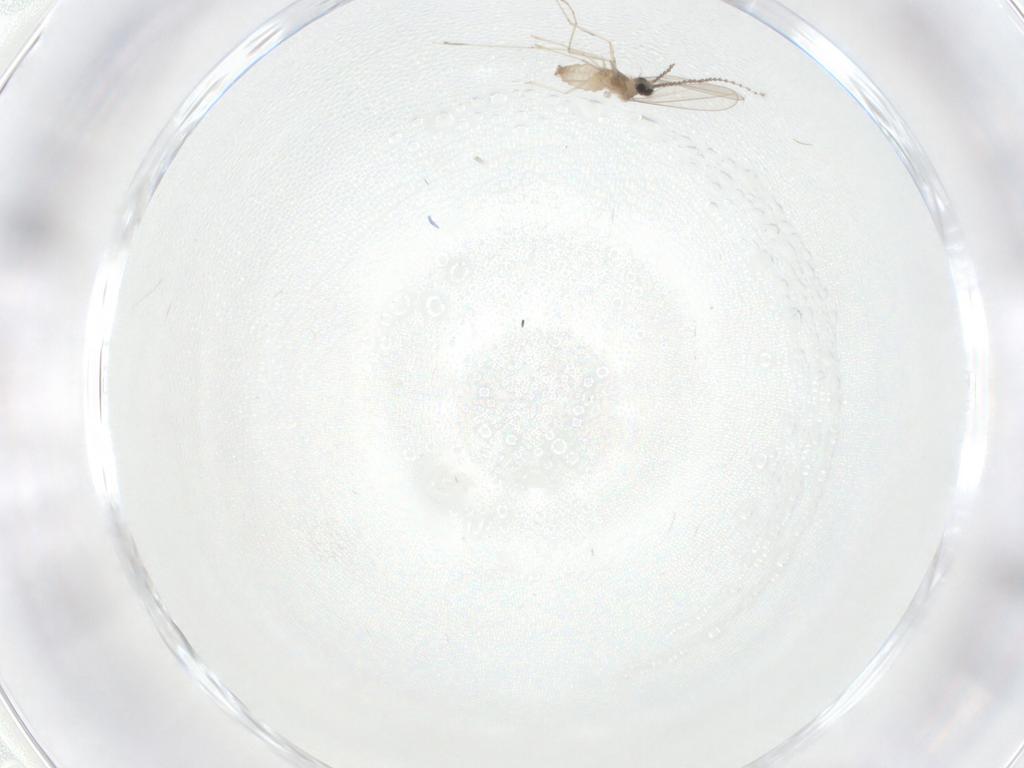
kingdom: Animalia
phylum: Arthropoda
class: Insecta
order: Diptera
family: Cecidomyiidae
